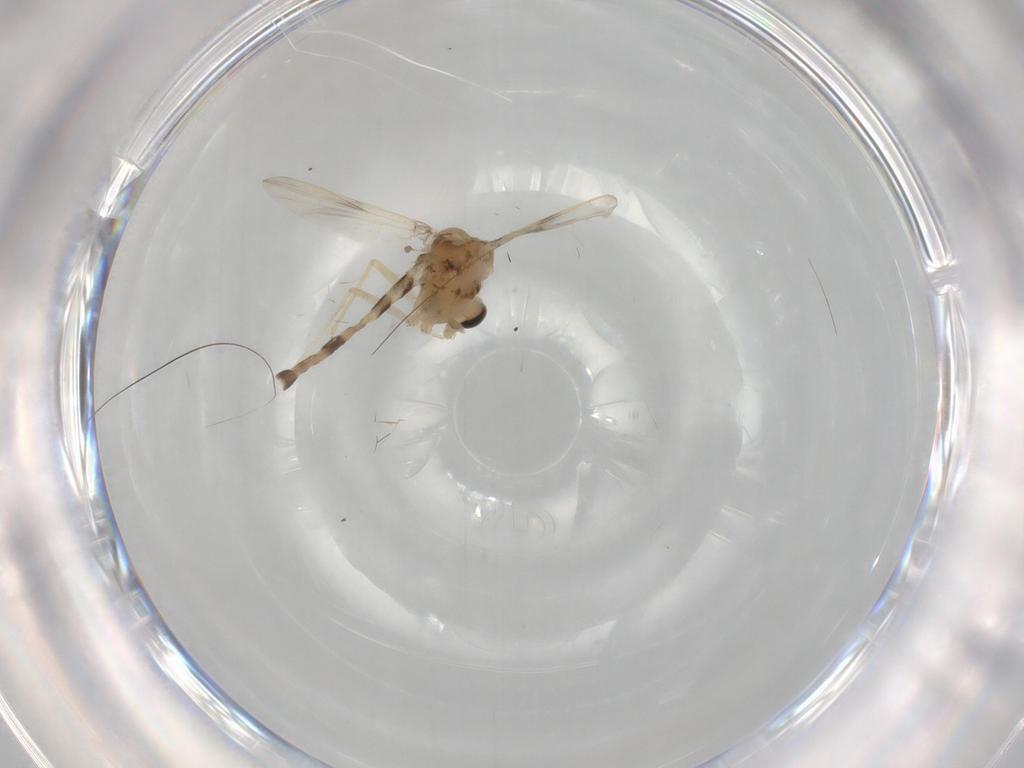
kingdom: Animalia
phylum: Arthropoda
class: Insecta
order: Diptera
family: Chironomidae
